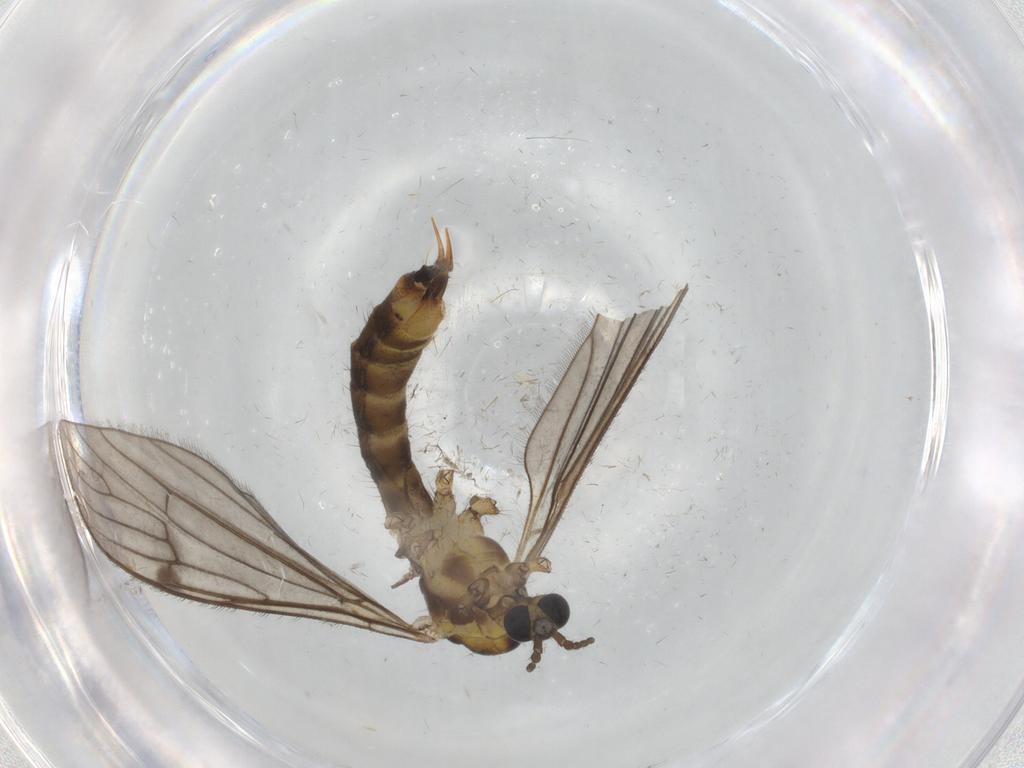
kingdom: Animalia
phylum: Arthropoda
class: Insecta
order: Diptera
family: Limoniidae
